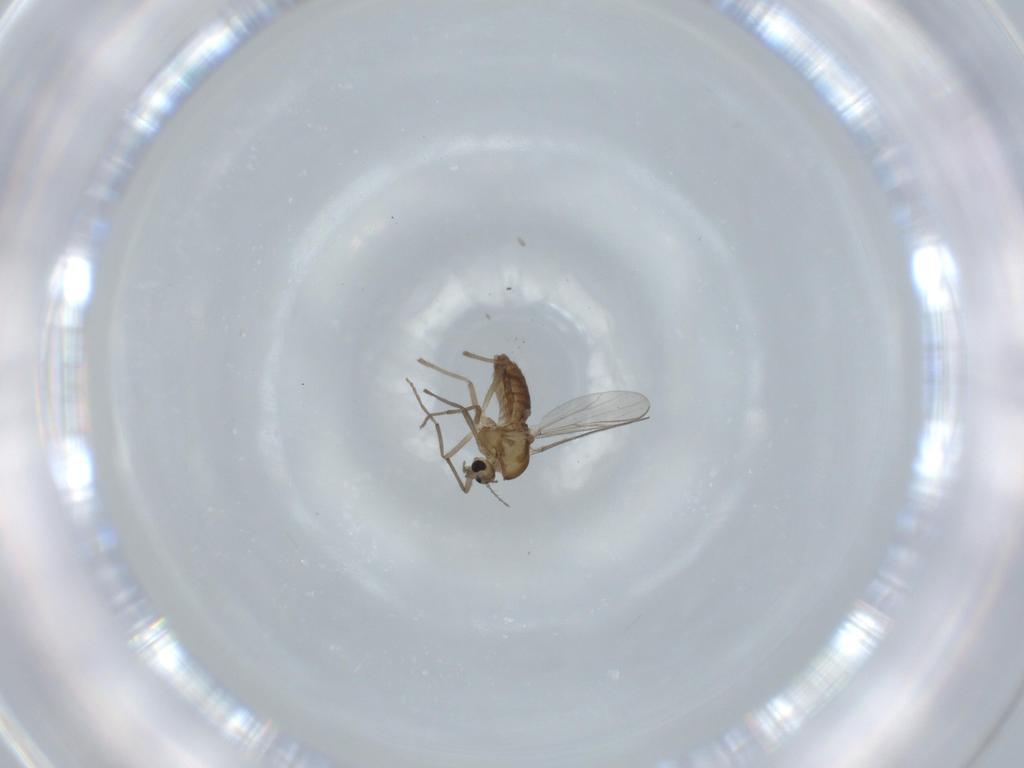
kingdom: Animalia
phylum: Arthropoda
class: Insecta
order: Diptera
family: Chironomidae
